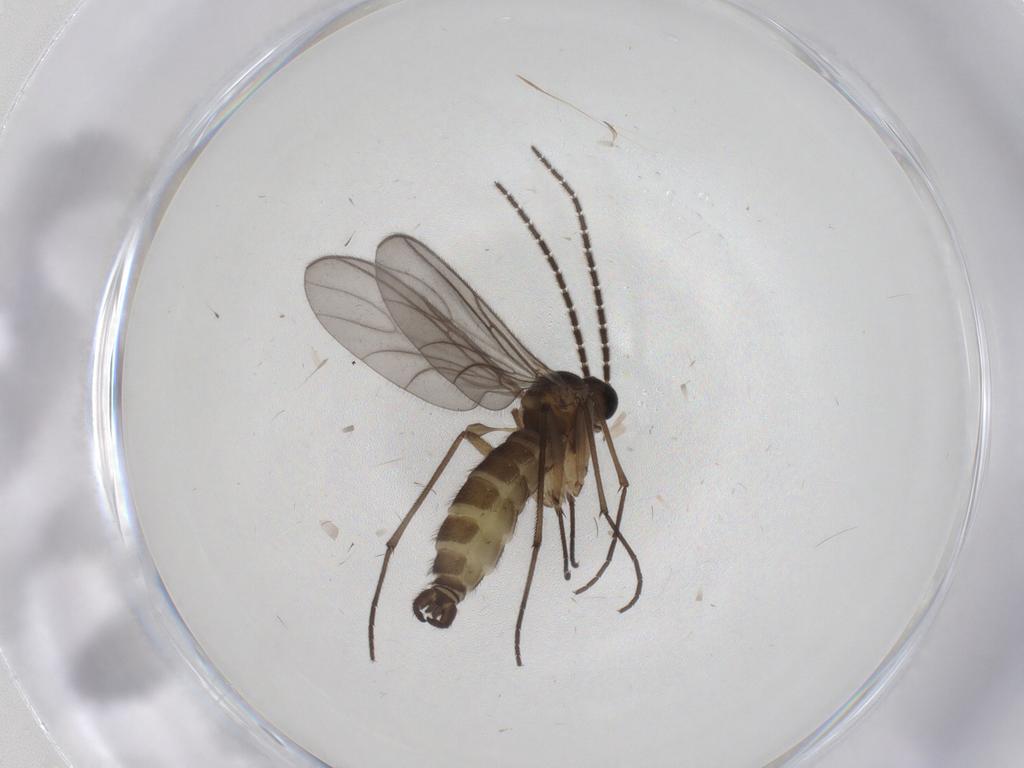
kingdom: Animalia
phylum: Arthropoda
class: Insecta
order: Diptera
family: Sciaridae
